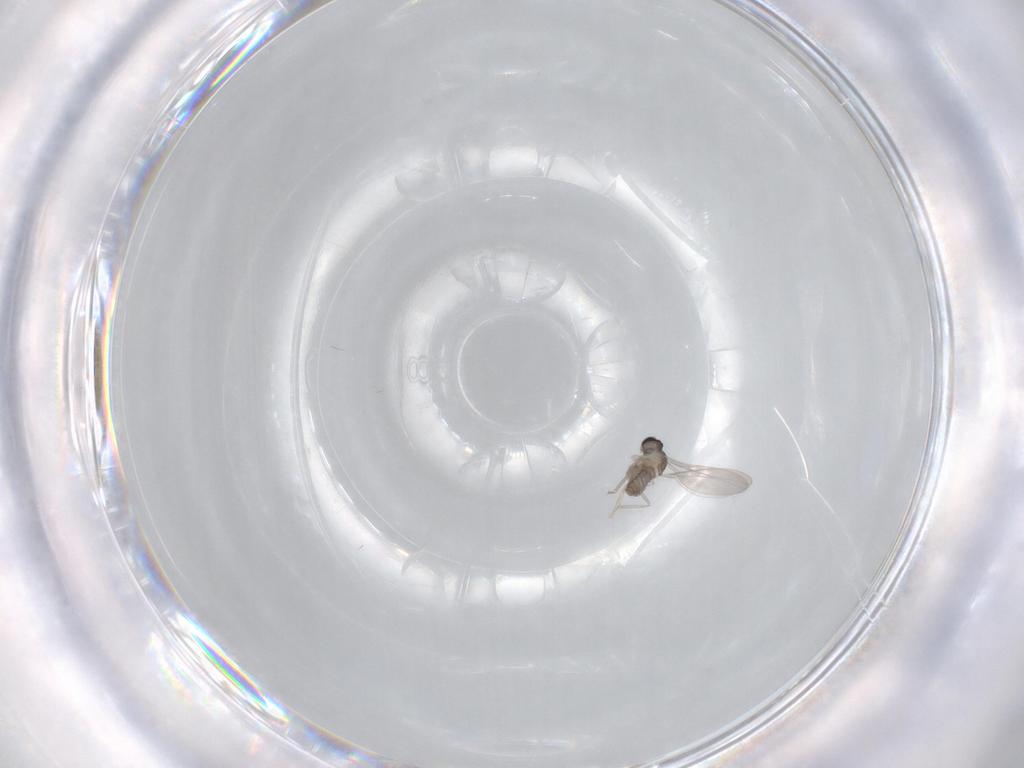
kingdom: Animalia
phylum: Arthropoda
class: Insecta
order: Diptera
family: Cecidomyiidae
